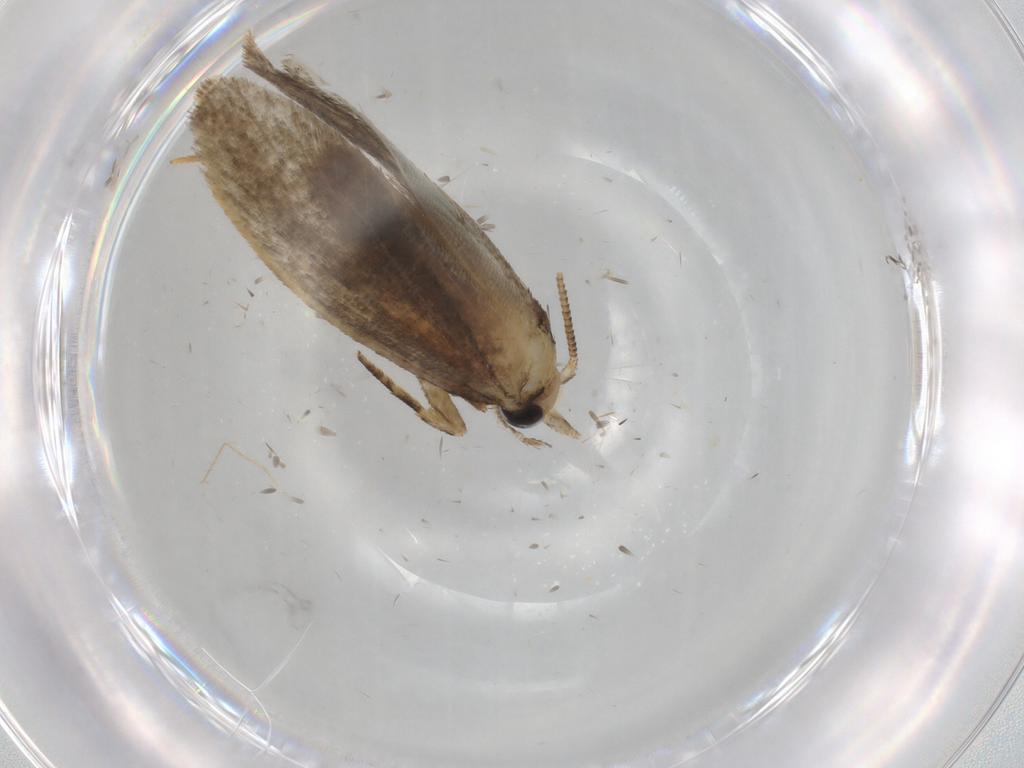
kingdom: Animalia
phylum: Arthropoda
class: Insecta
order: Lepidoptera
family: Tineidae
